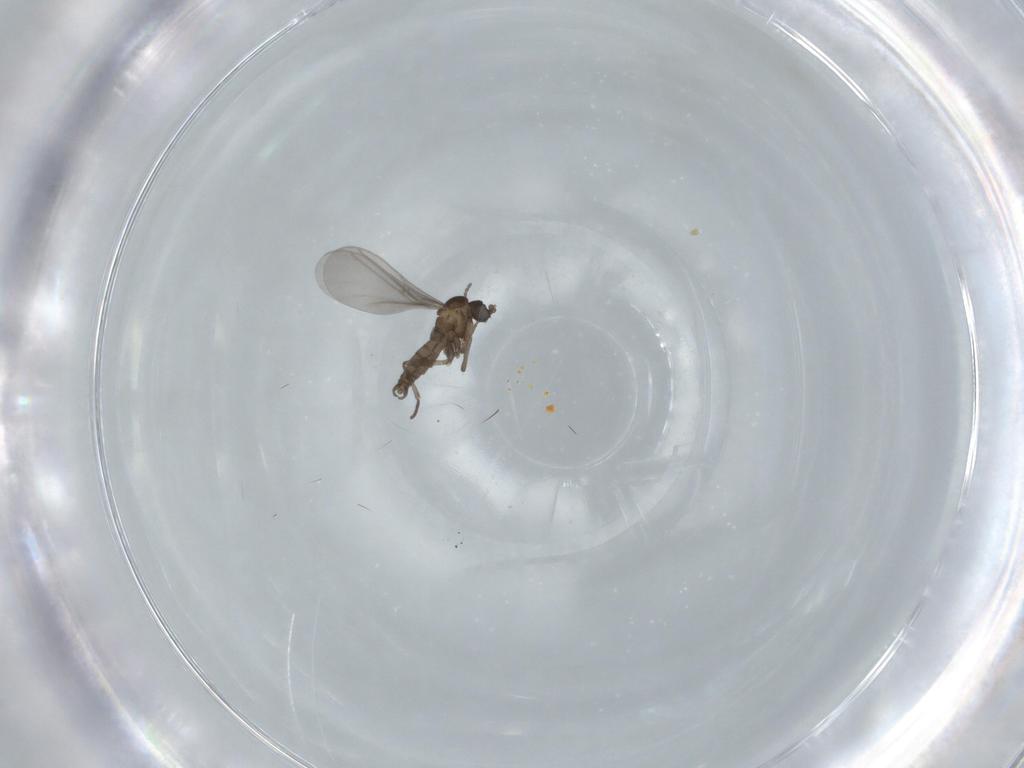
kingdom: Animalia
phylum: Arthropoda
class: Insecta
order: Diptera
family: Sciaridae
